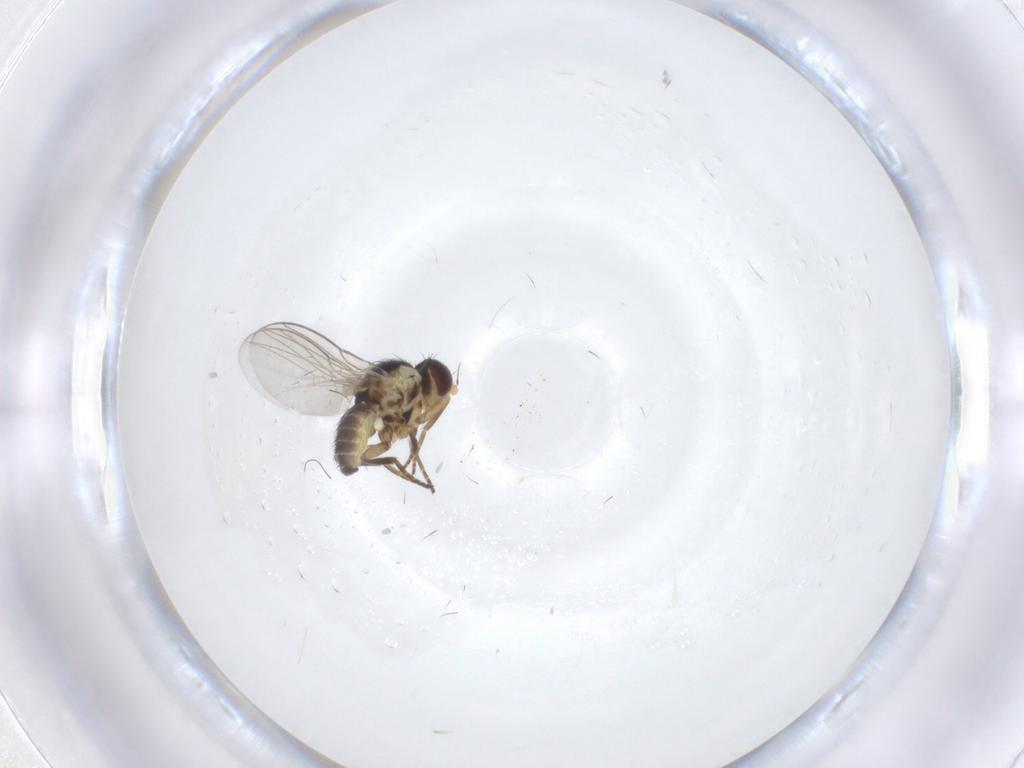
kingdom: Animalia
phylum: Arthropoda
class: Insecta
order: Diptera
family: Agromyzidae
